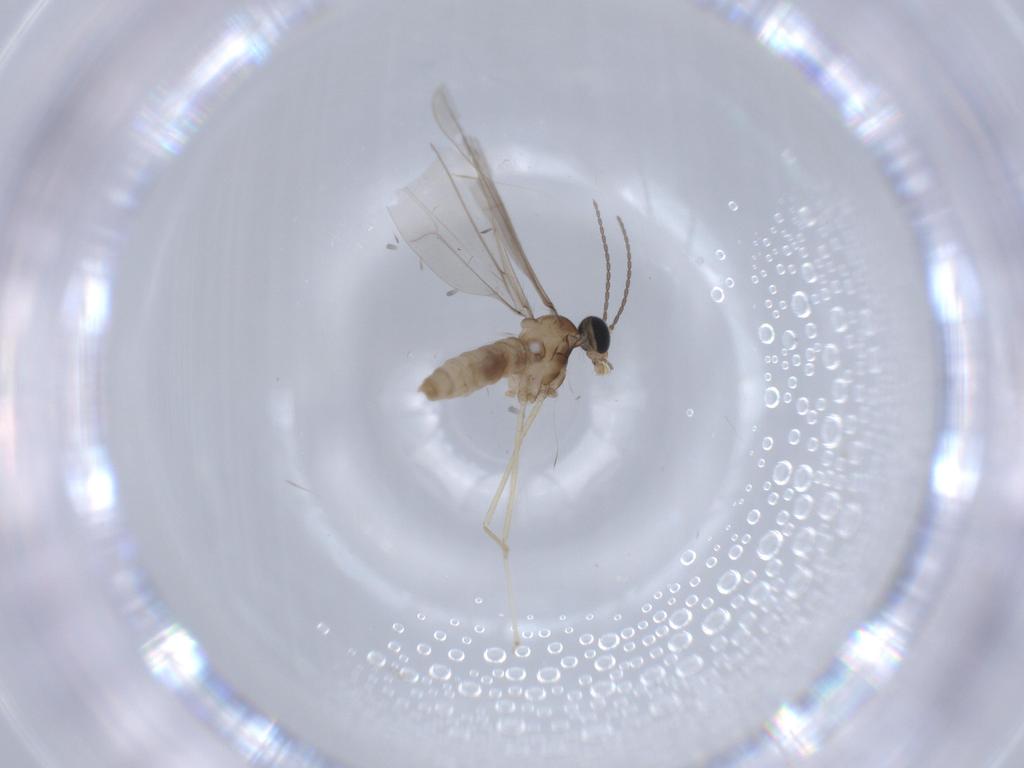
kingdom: Animalia
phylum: Arthropoda
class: Insecta
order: Diptera
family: Cecidomyiidae
